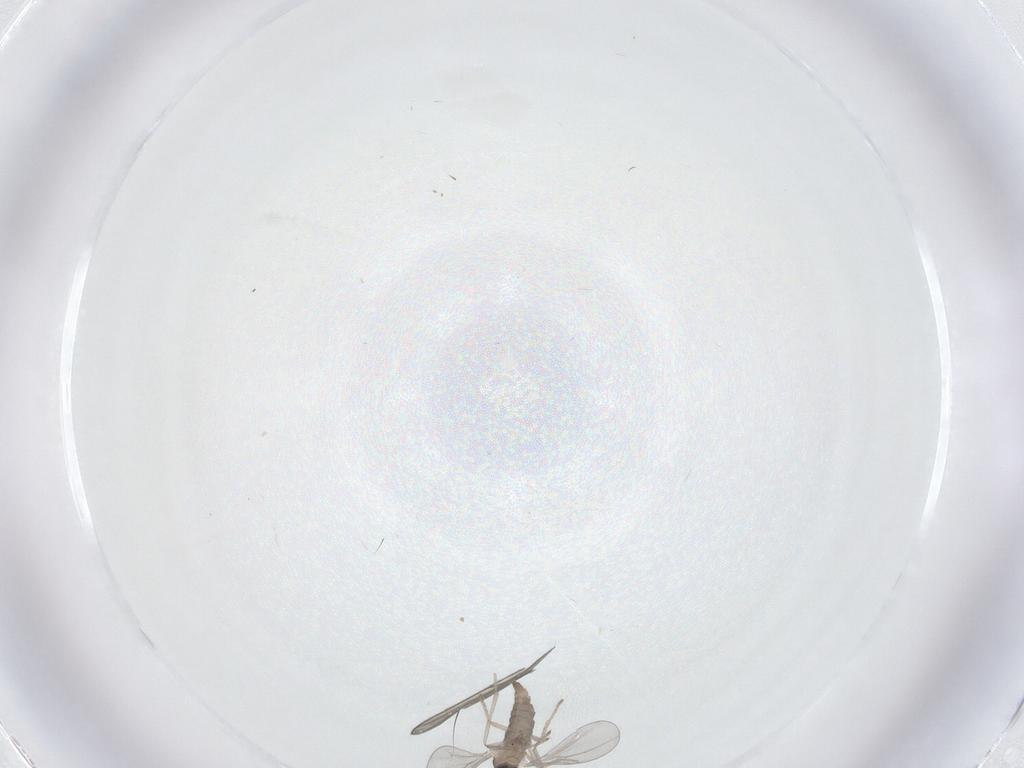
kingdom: Animalia
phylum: Arthropoda
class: Insecta
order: Diptera
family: Cecidomyiidae
